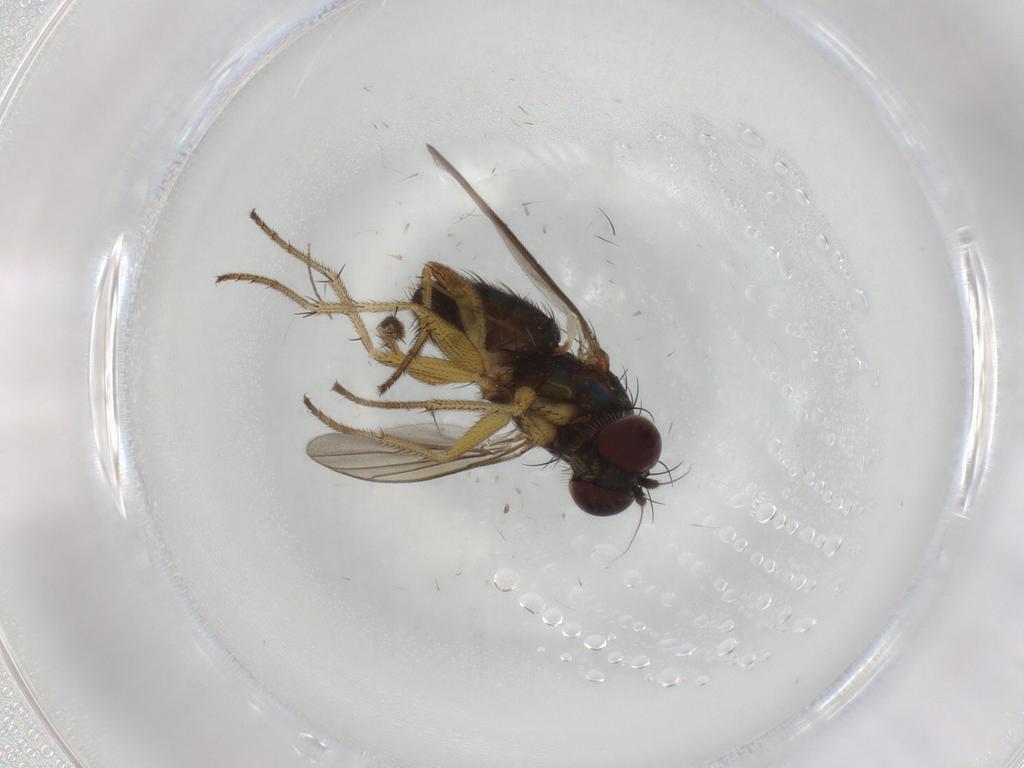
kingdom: Animalia
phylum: Arthropoda
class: Insecta
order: Diptera
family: Dolichopodidae
